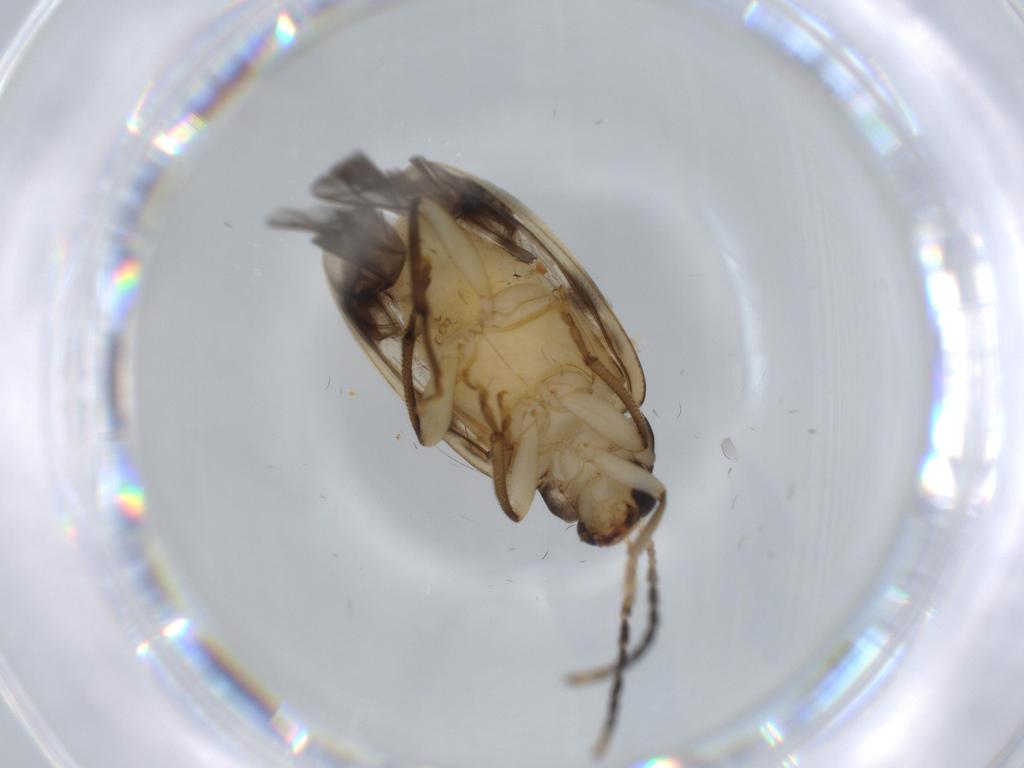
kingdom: Animalia
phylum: Arthropoda
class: Insecta
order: Coleoptera
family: Chrysomelidae
